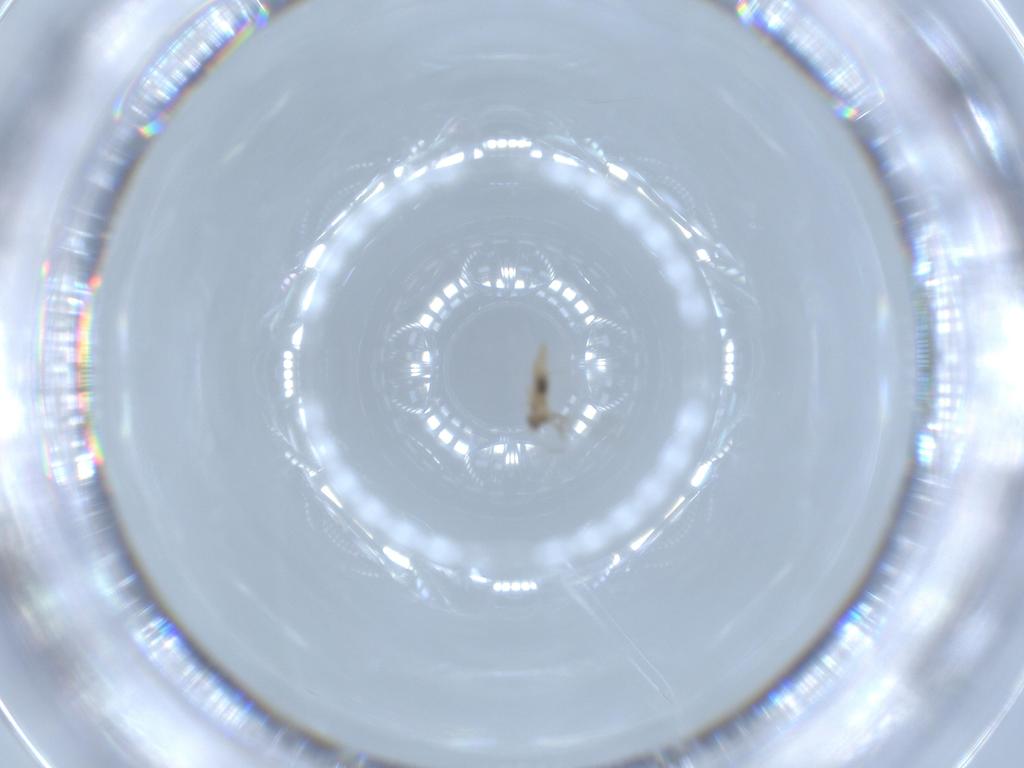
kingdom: Animalia
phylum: Arthropoda
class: Insecta
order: Diptera
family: Cecidomyiidae
